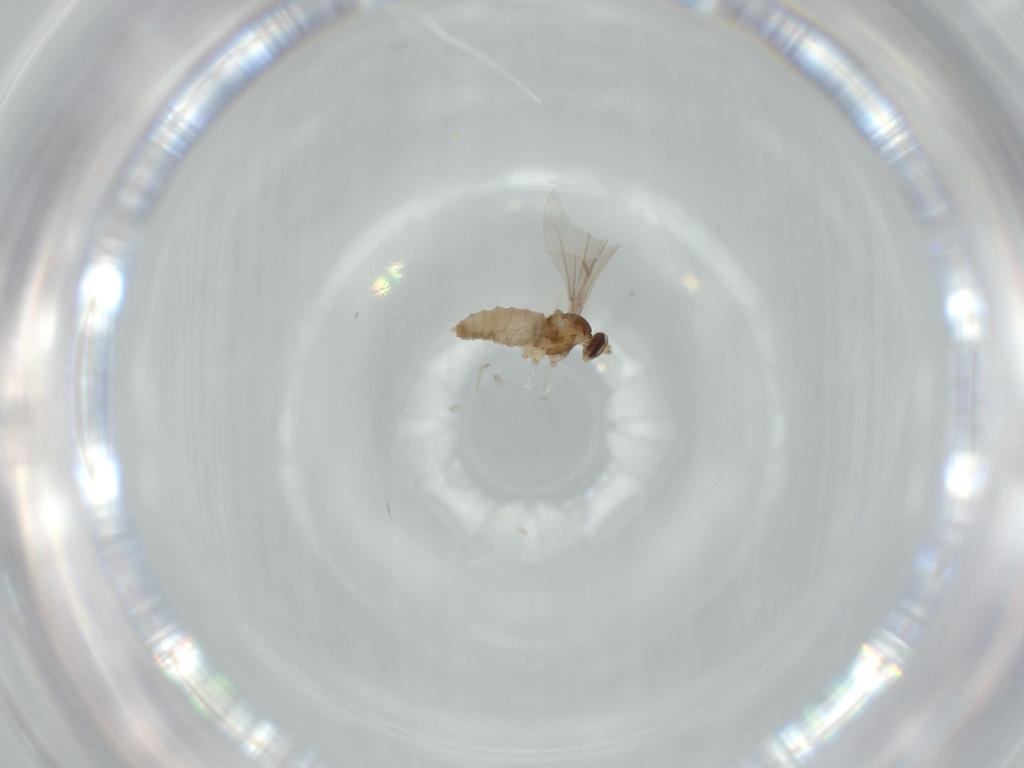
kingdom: Animalia
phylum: Arthropoda
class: Insecta
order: Diptera
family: Cecidomyiidae
